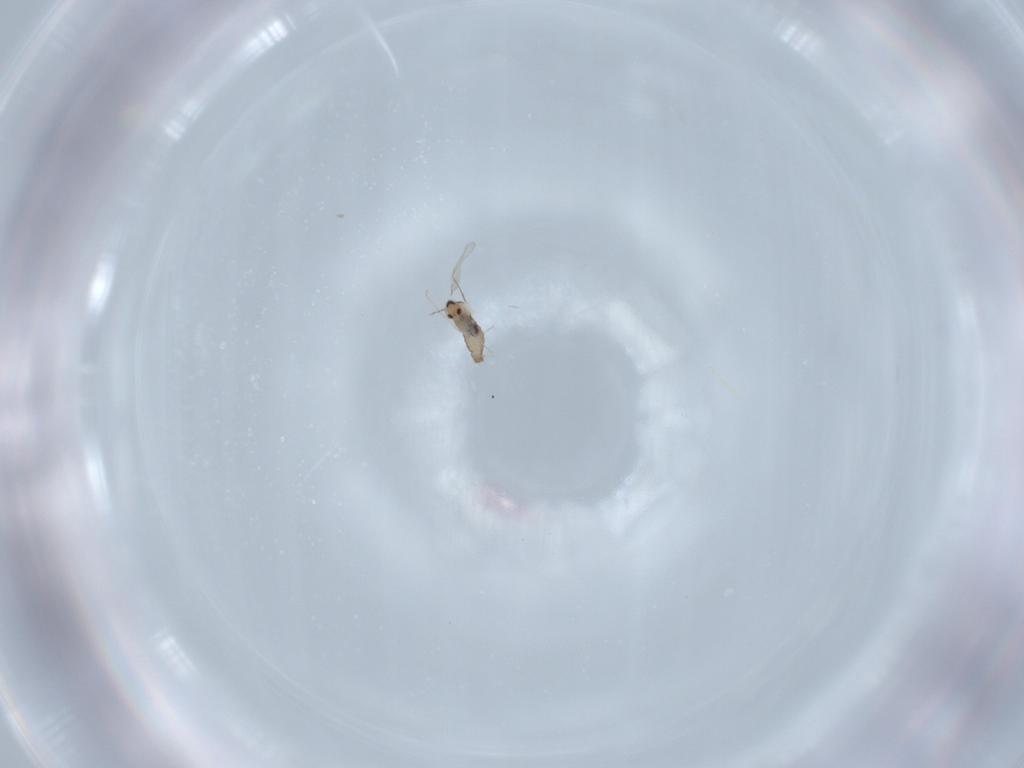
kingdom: Animalia
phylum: Arthropoda
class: Insecta
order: Diptera
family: Cecidomyiidae
